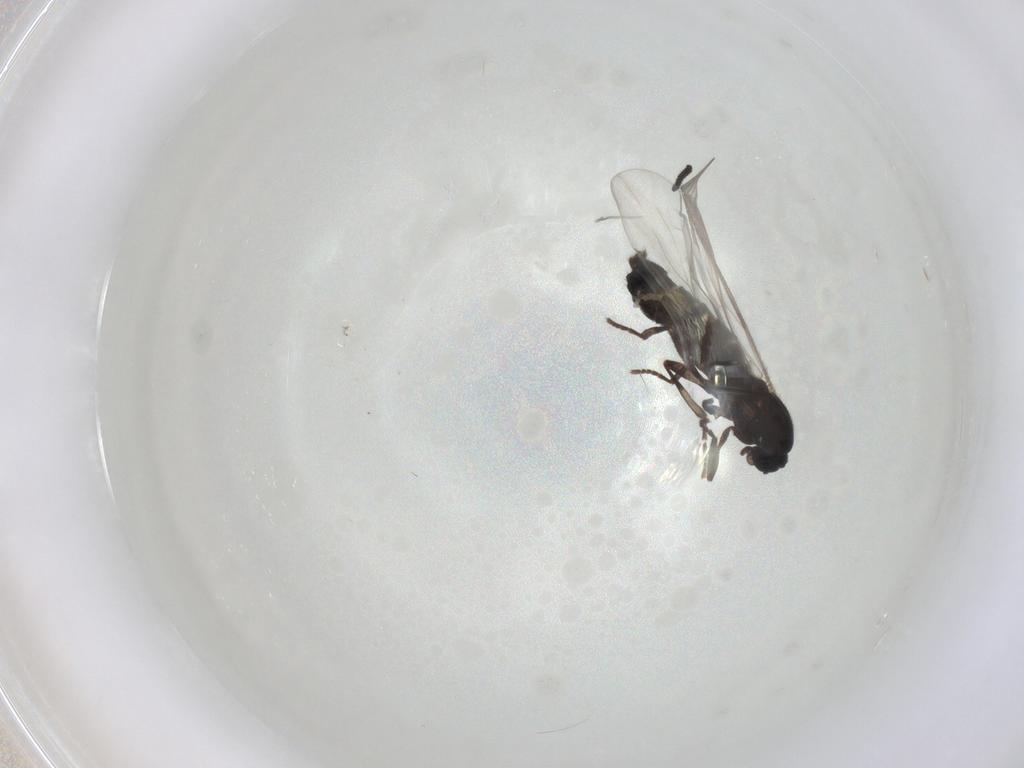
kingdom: Animalia
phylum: Arthropoda
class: Insecta
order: Diptera
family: Scatopsidae
